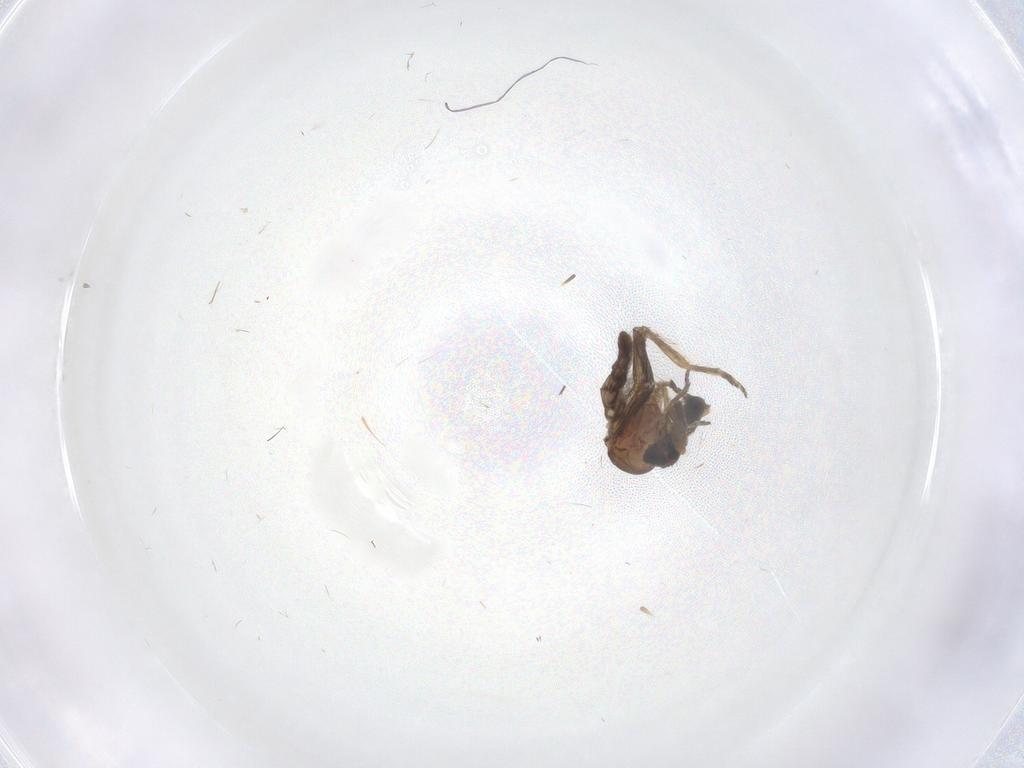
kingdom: Animalia
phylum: Arthropoda
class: Insecta
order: Diptera
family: Ceratopogonidae
